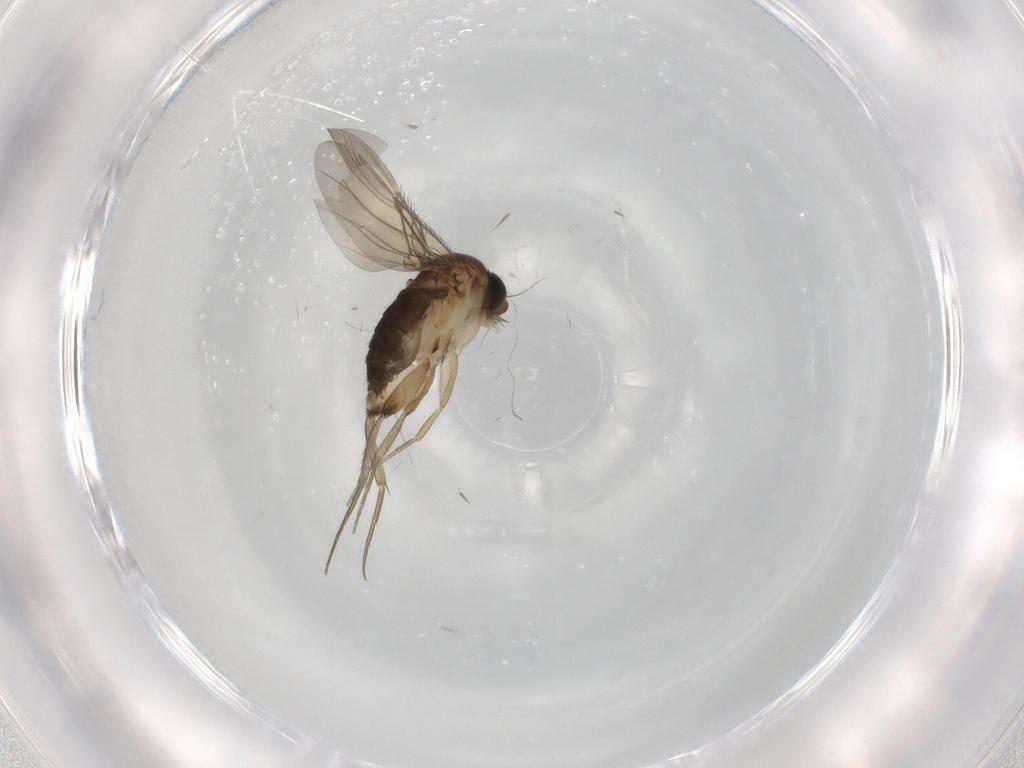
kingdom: Animalia
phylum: Arthropoda
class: Insecta
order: Diptera
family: Phoridae
